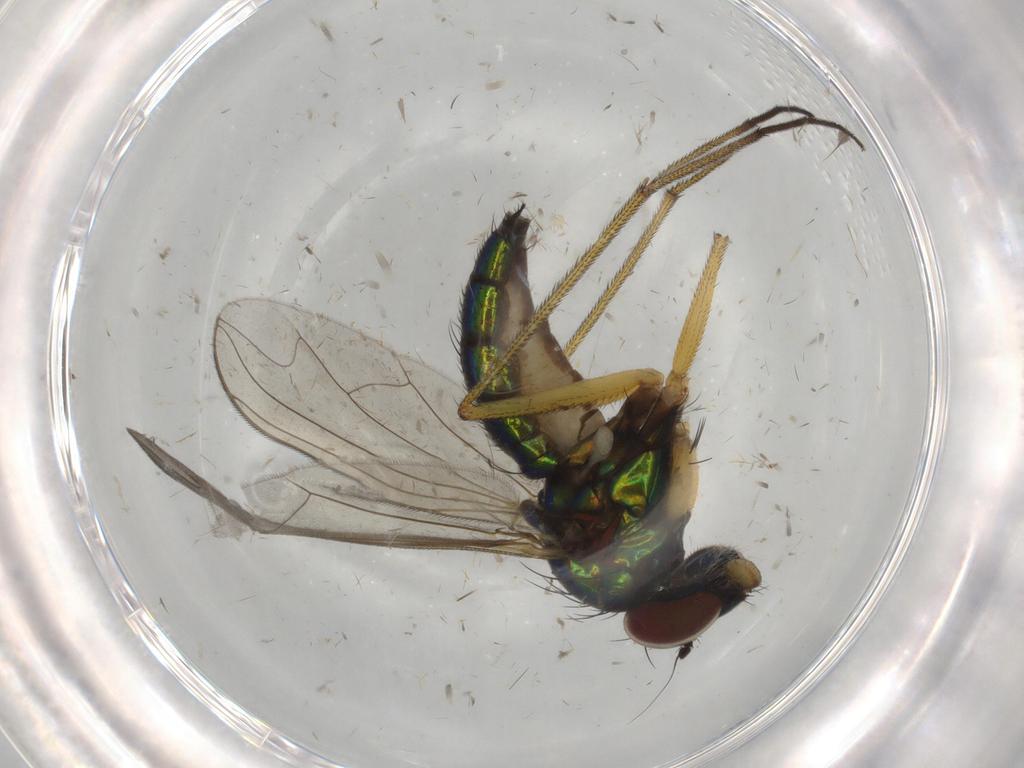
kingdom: Animalia
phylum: Arthropoda
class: Insecta
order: Diptera
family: Dolichopodidae
